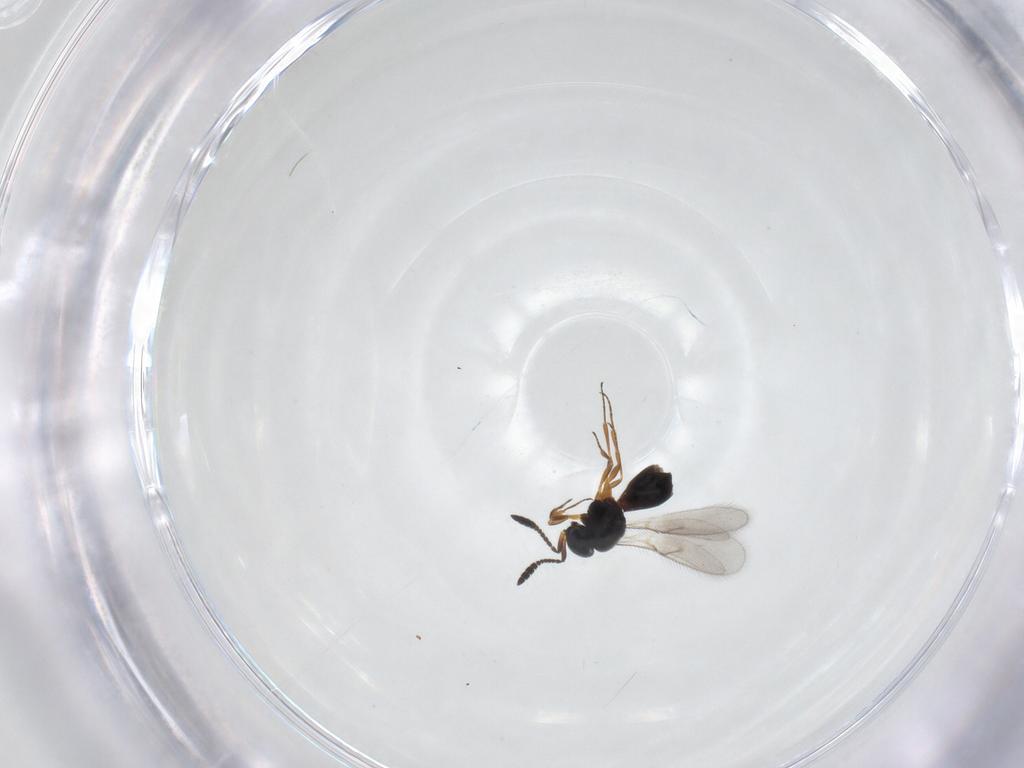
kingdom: Animalia
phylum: Arthropoda
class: Insecta
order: Hymenoptera
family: Scelionidae
